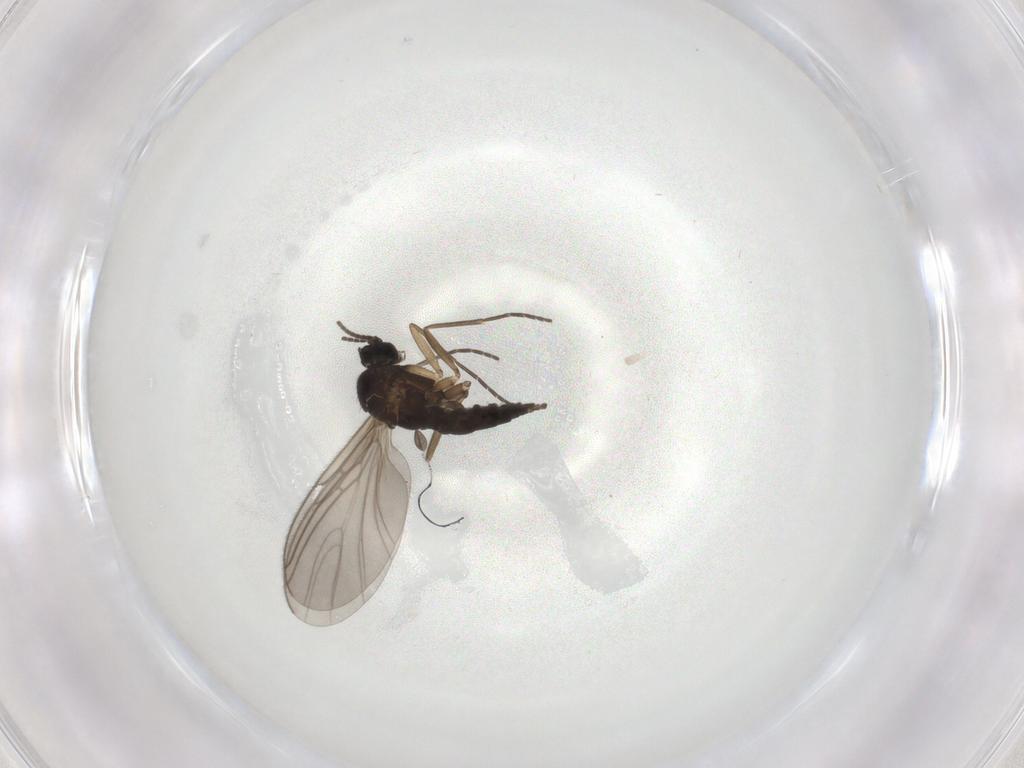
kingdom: Animalia
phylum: Arthropoda
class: Insecta
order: Diptera
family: Sciaridae
